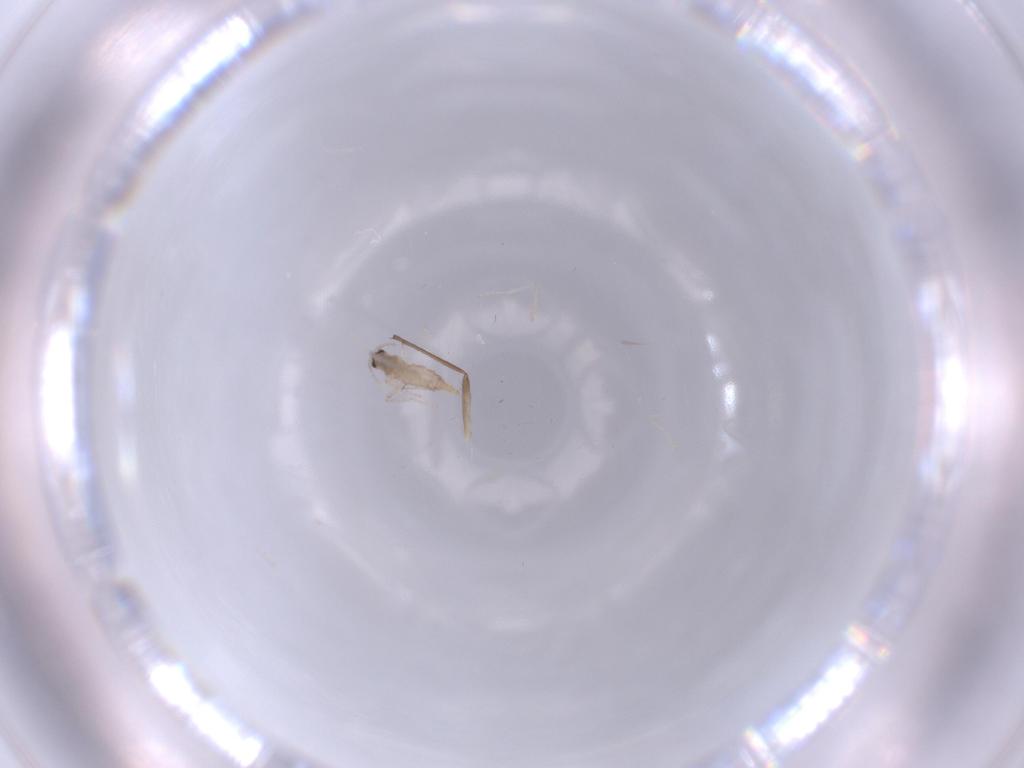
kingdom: Animalia
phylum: Arthropoda
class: Insecta
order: Diptera
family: Cecidomyiidae
